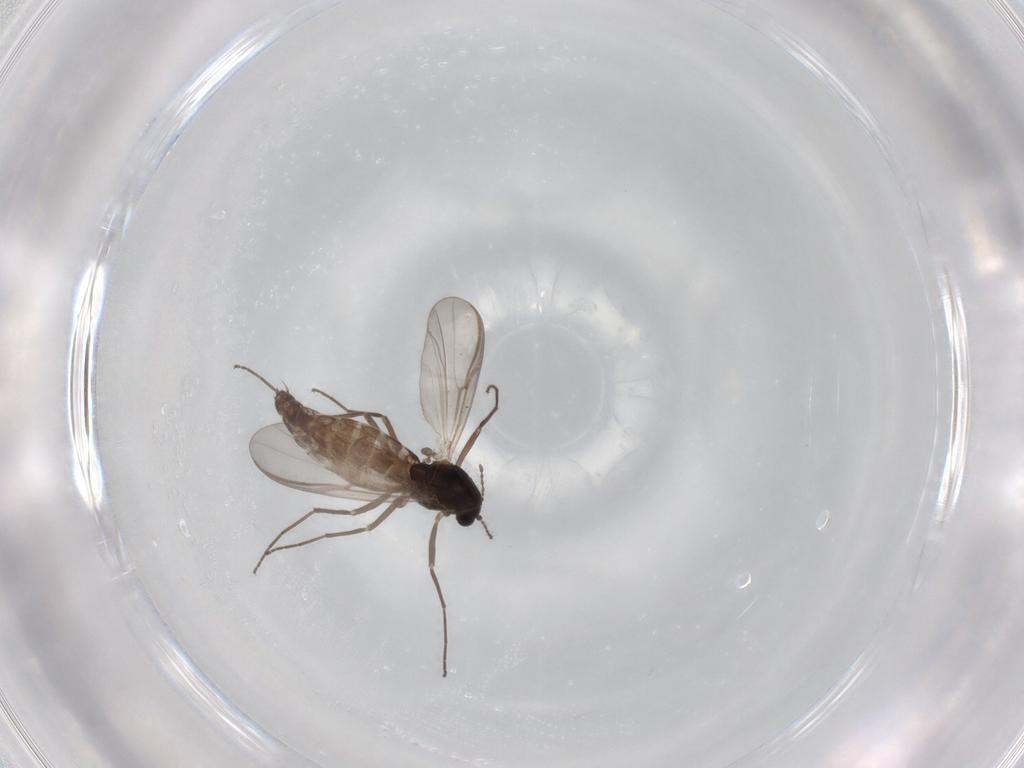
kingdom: Animalia
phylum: Arthropoda
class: Insecta
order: Diptera
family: Chironomidae
